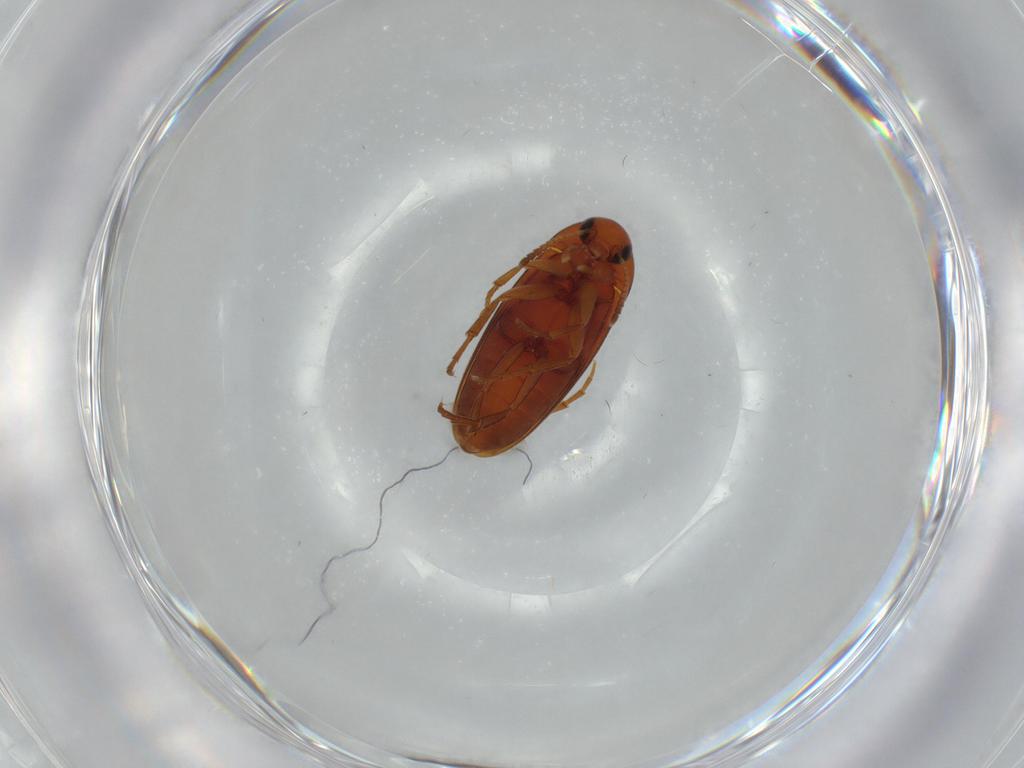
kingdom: Animalia
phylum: Arthropoda
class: Insecta
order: Coleoptera
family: Scraptiidae
